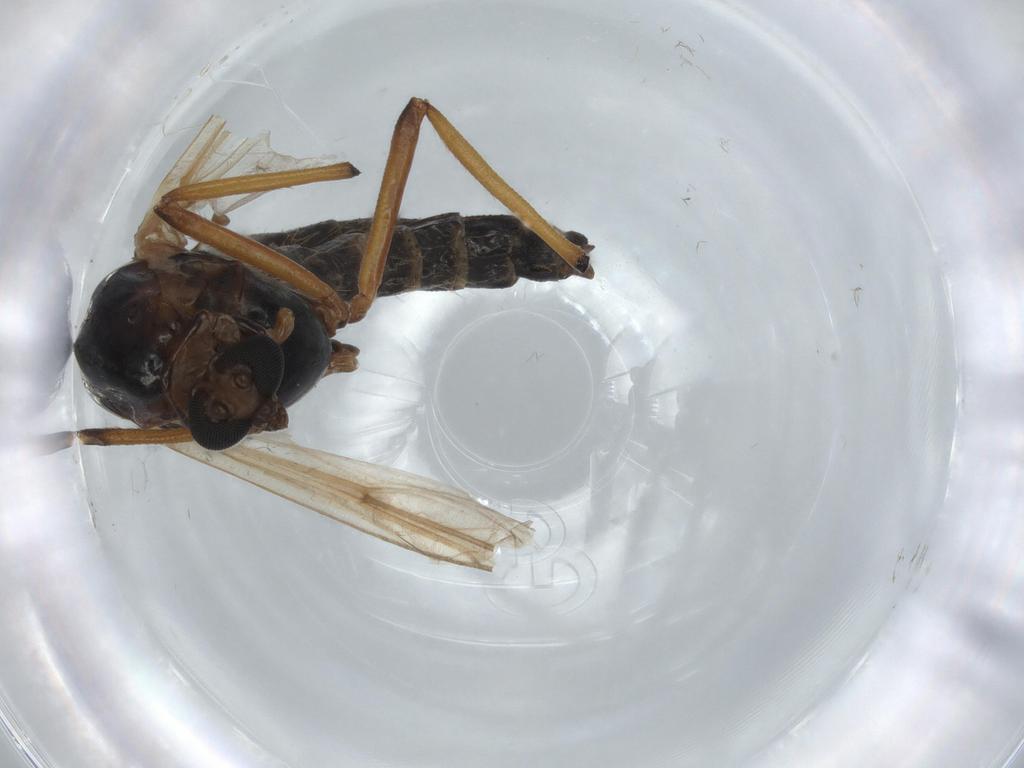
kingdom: Animalia
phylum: Arthropoda
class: Insecta
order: Diptera
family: Chironomidae
